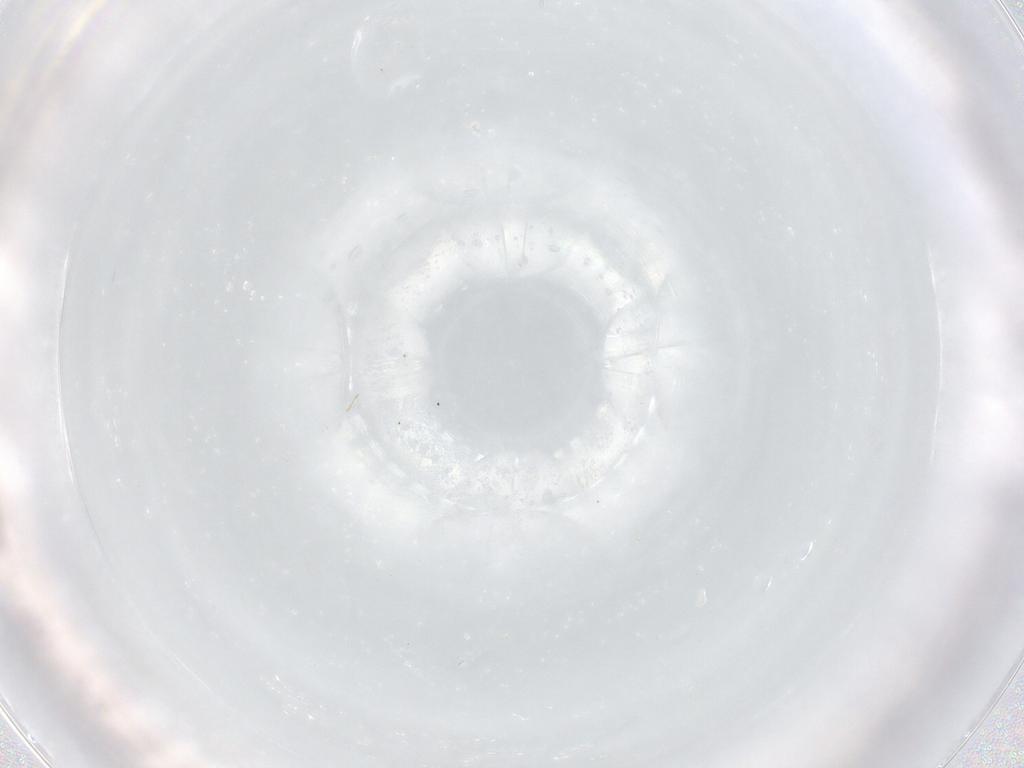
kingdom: Animalia
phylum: Arthropoda
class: Insecta
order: Hymenoptera
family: Mymaridae
